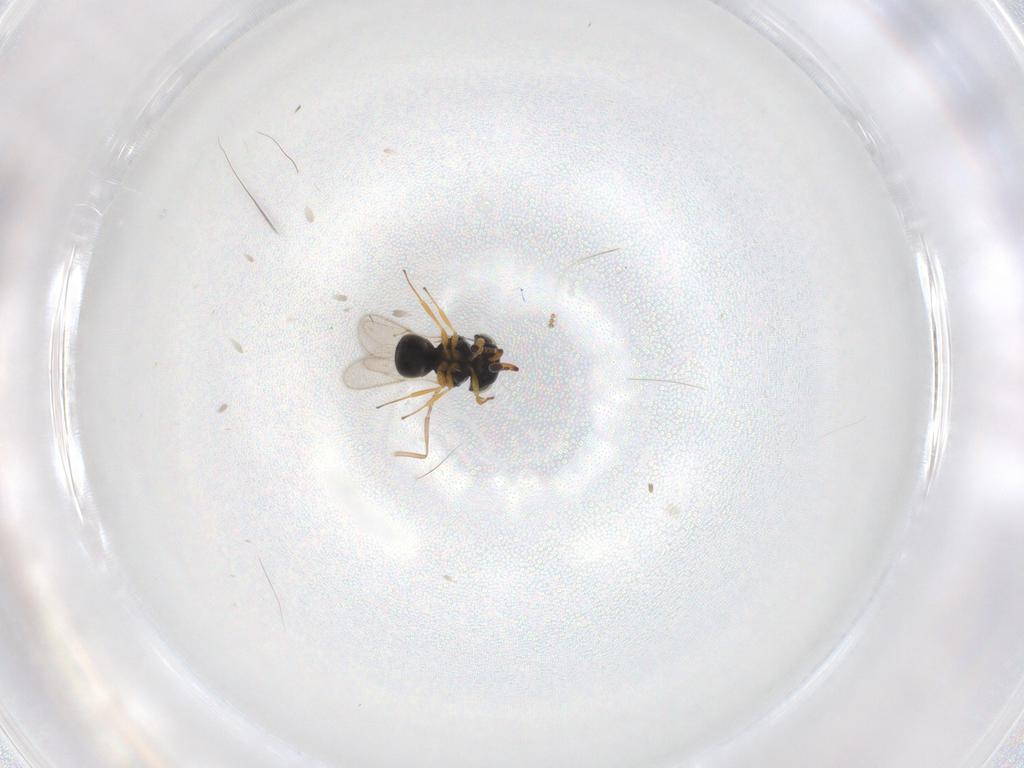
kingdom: Animalia
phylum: Arthropoda
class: Insecta
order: Hymenoptera
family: Scelionidae
